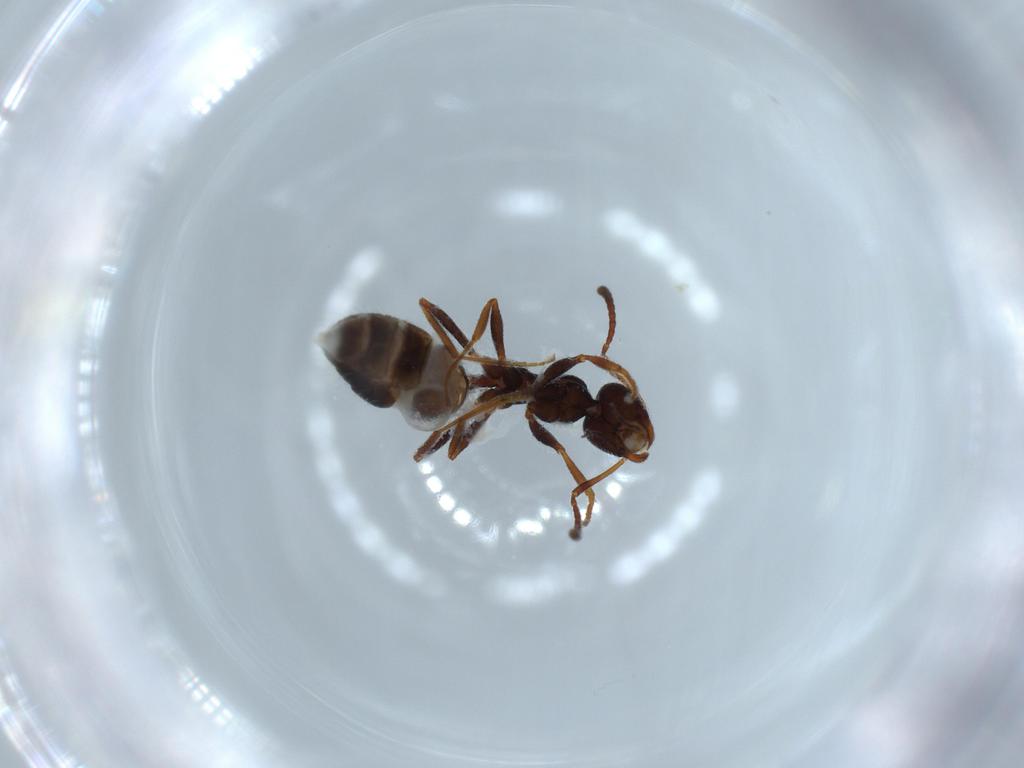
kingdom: Animalia
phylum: Arthropoda
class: Insecta
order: Hymenoptera
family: Formicidae
